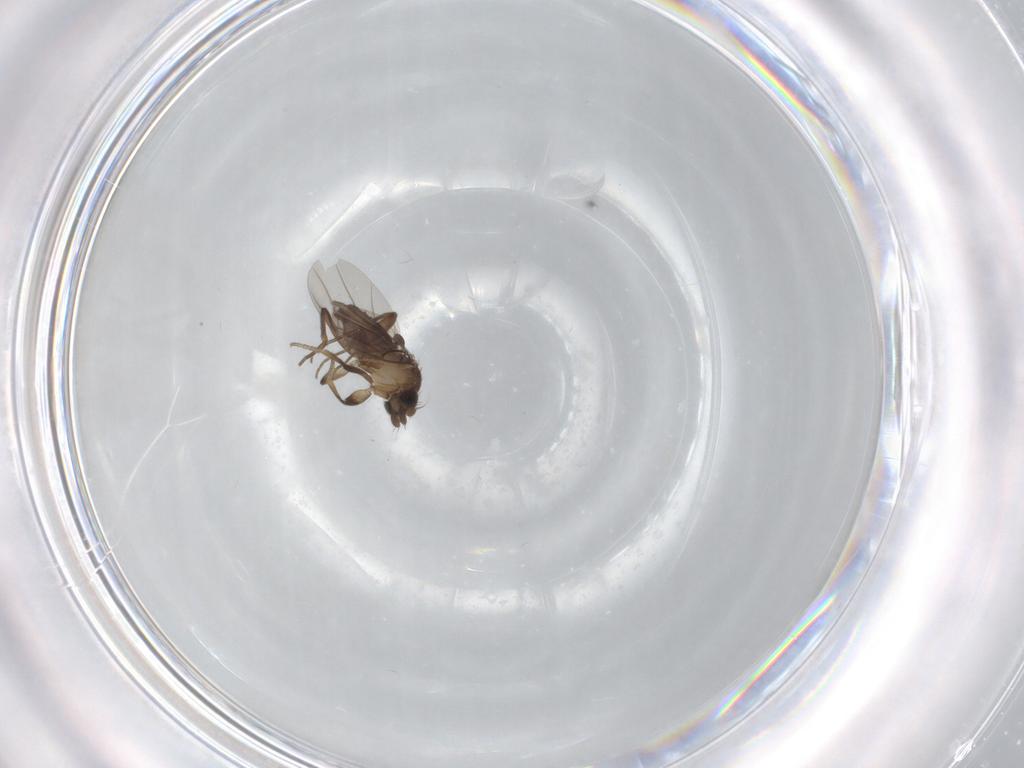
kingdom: Animalia
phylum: Arthropoda
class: Insecta
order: Diptera
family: Phoridae
